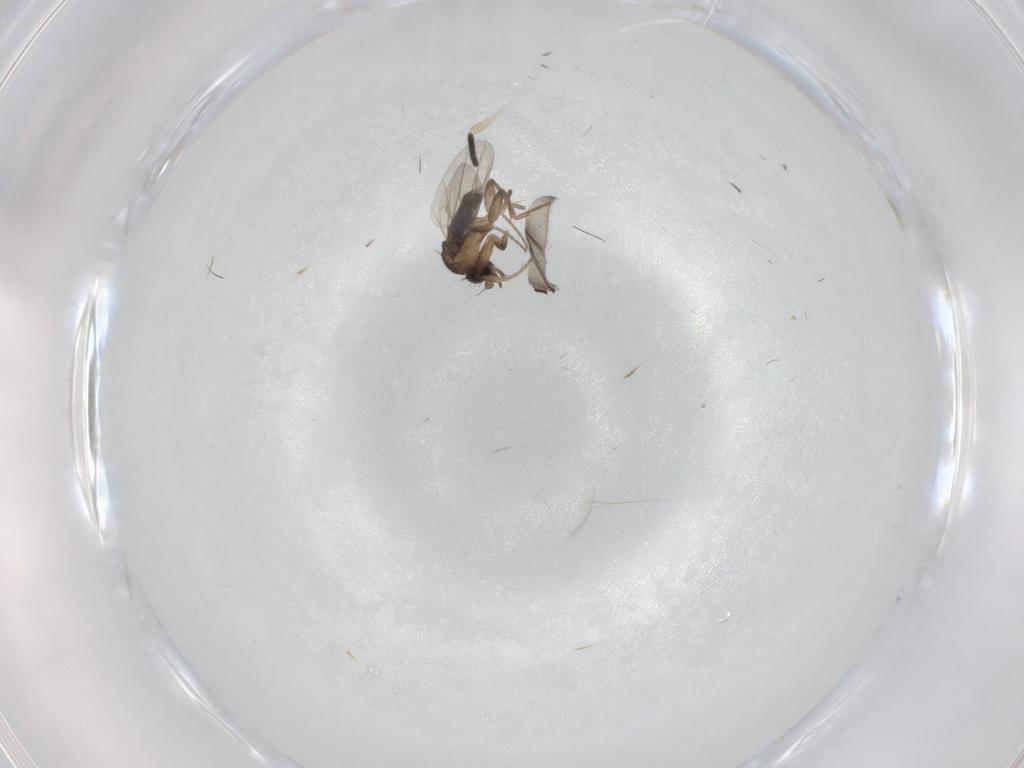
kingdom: Animalia
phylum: Arthropoda
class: Insecta
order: Diptera
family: Sciaridae
